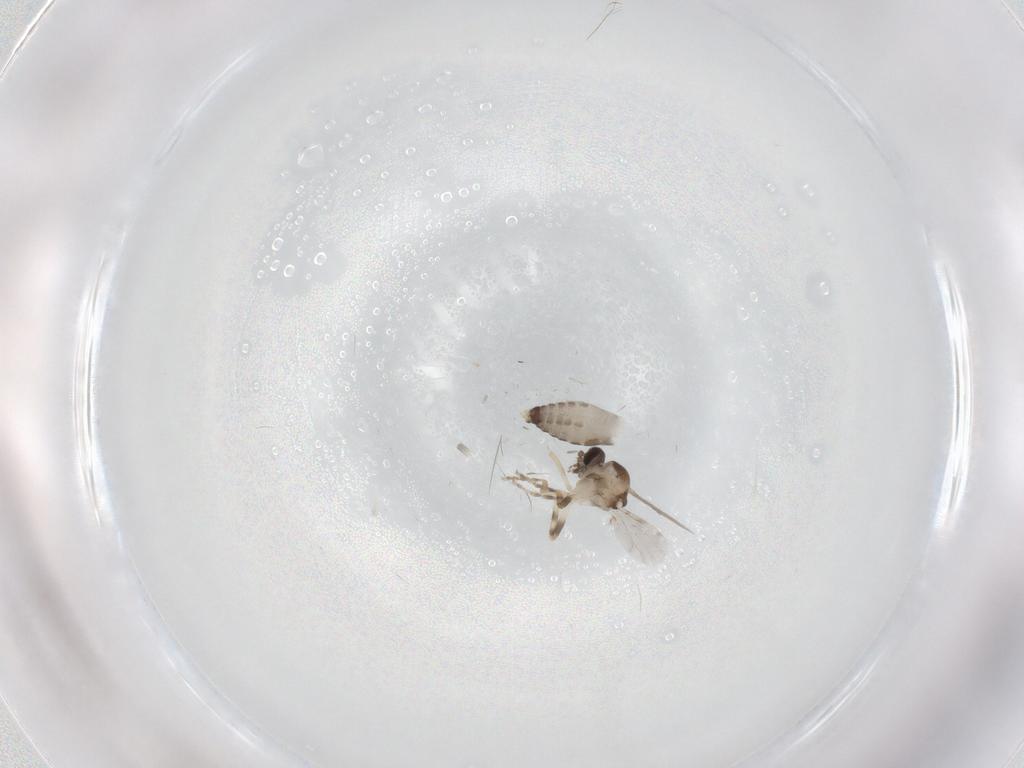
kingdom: Animalia
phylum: Arthropoda
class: Insecta
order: Diptera
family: Ceratopogonidae
